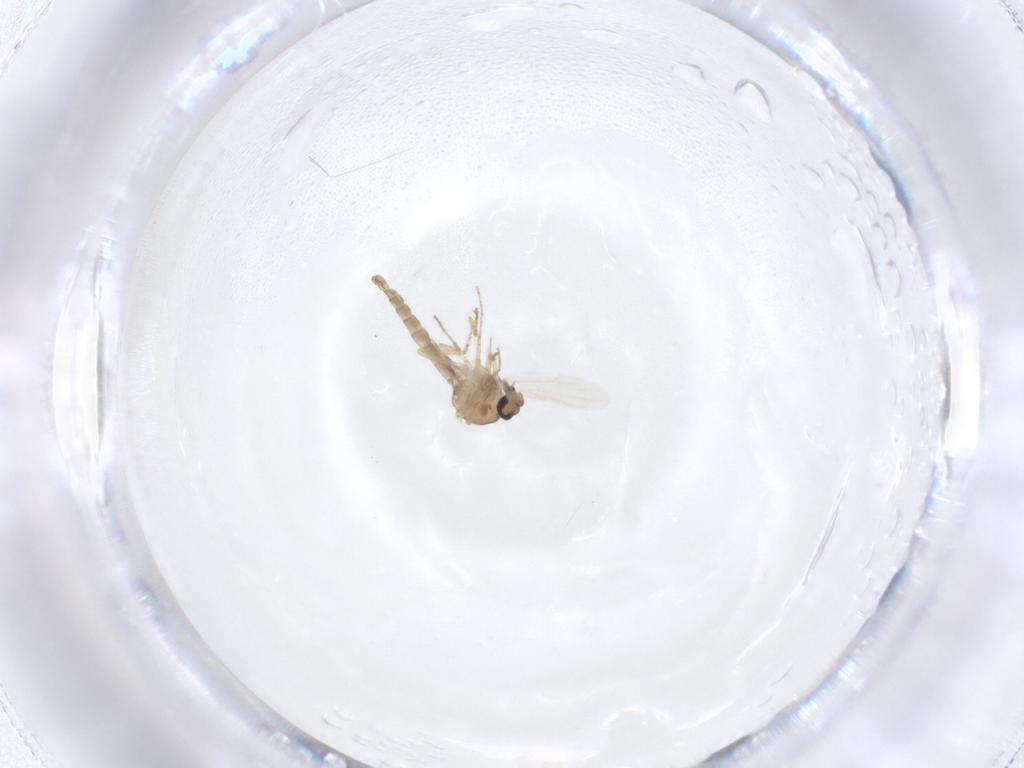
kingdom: Animalia
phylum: Arthropoda
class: Insecta
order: Diptera
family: Ceratopogonidae
